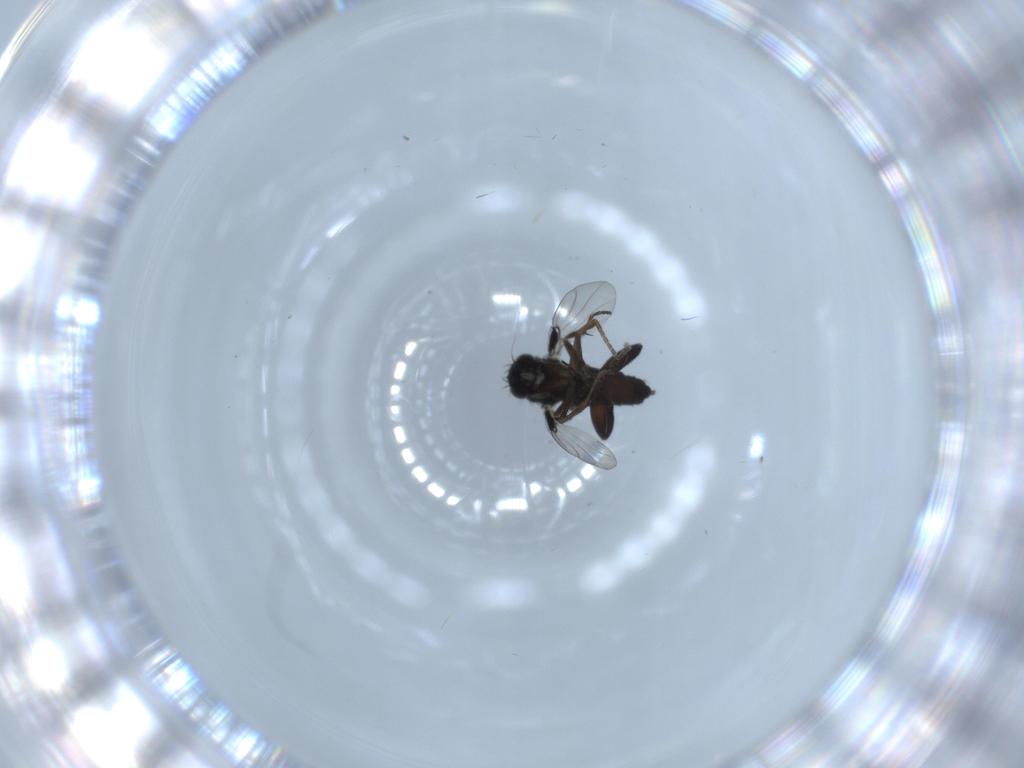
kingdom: Animalia
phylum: Arthropoda
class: Insecta
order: Diptera
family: Phoridae
